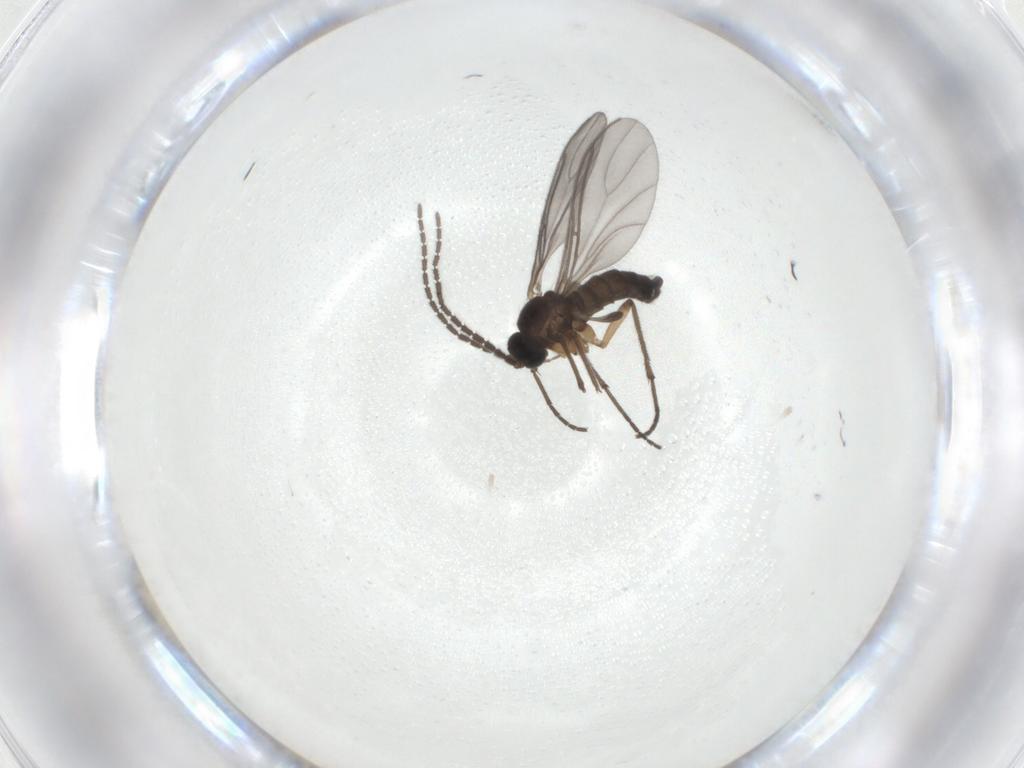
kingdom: Animalia
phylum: Arthropoda
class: Insecta
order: Diptera
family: Sciaridae
